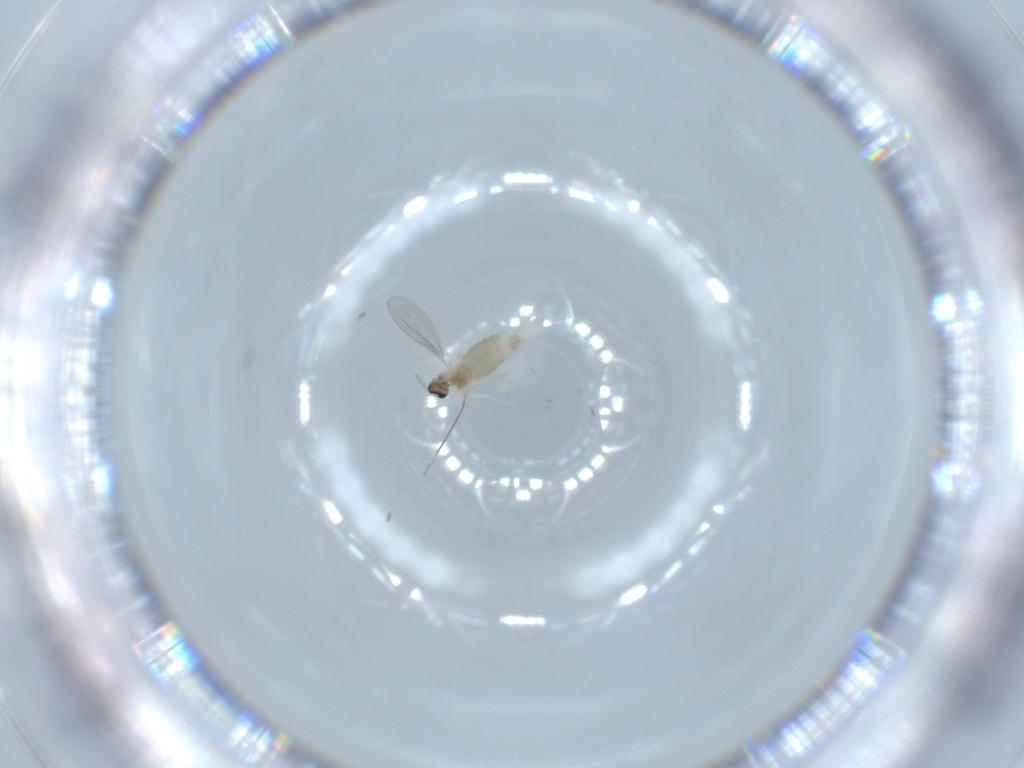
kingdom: Animalia
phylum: Arthropoda
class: Insecta
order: Diptera
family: Cecidomyiidae
